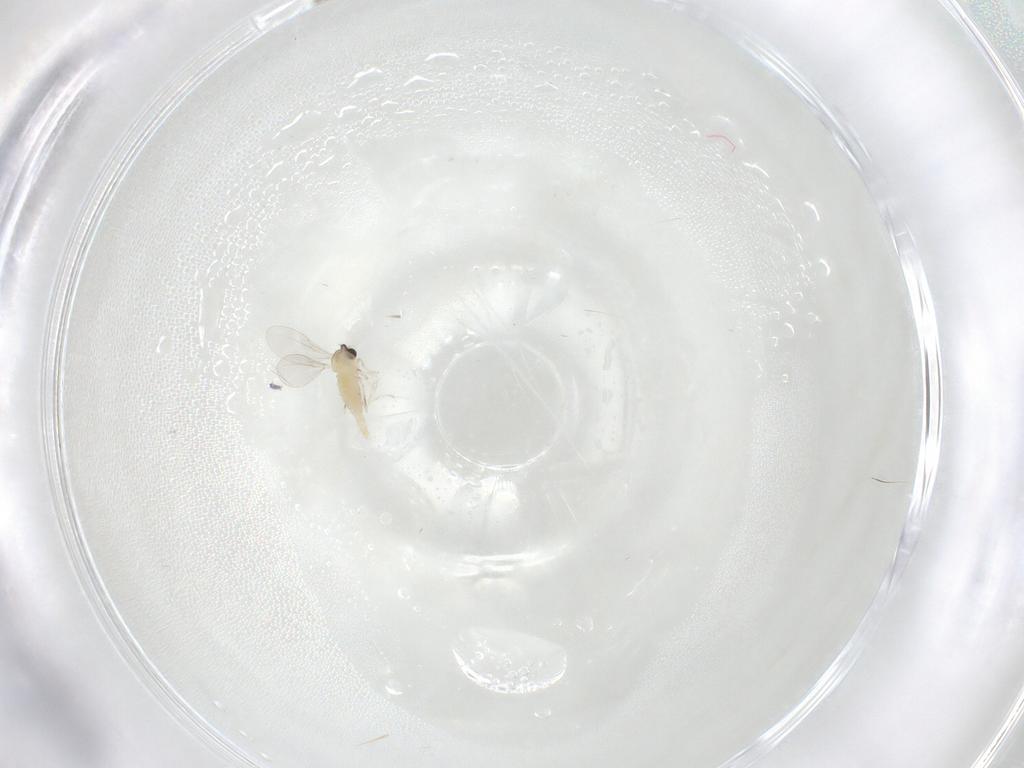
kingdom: Animalia
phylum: Arthropoda
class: Insecta
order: Diptera
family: Cecidomyiidae
